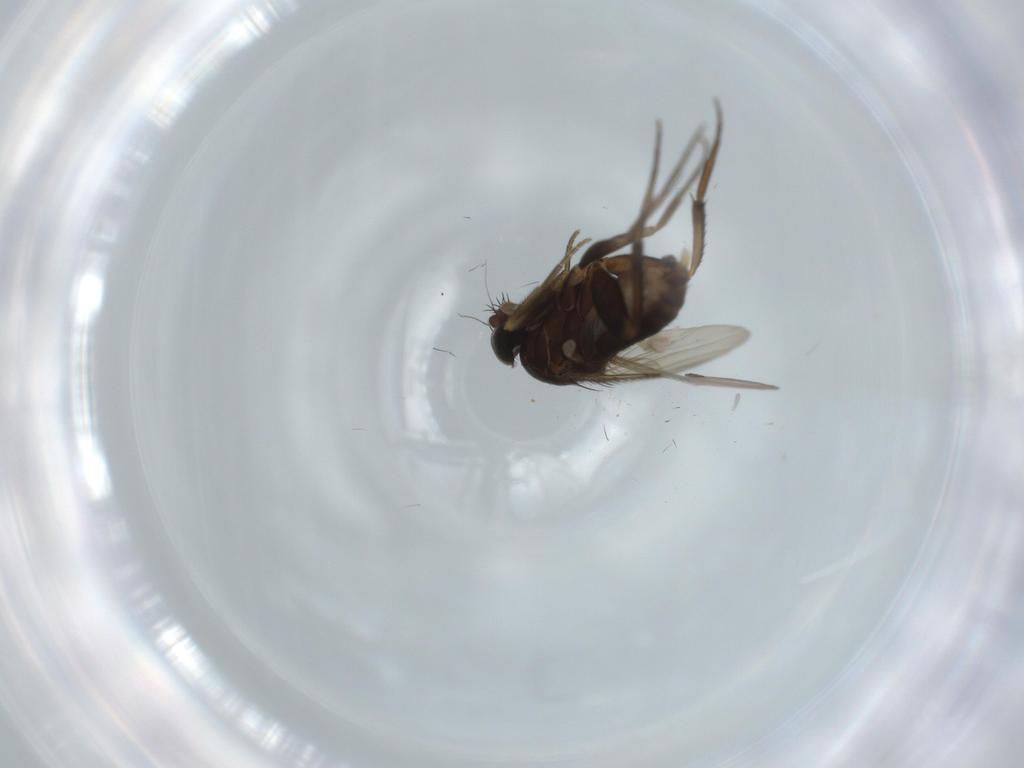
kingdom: Animalia
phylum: Arthropoda
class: Insecta
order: Diptera
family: Phoridae
